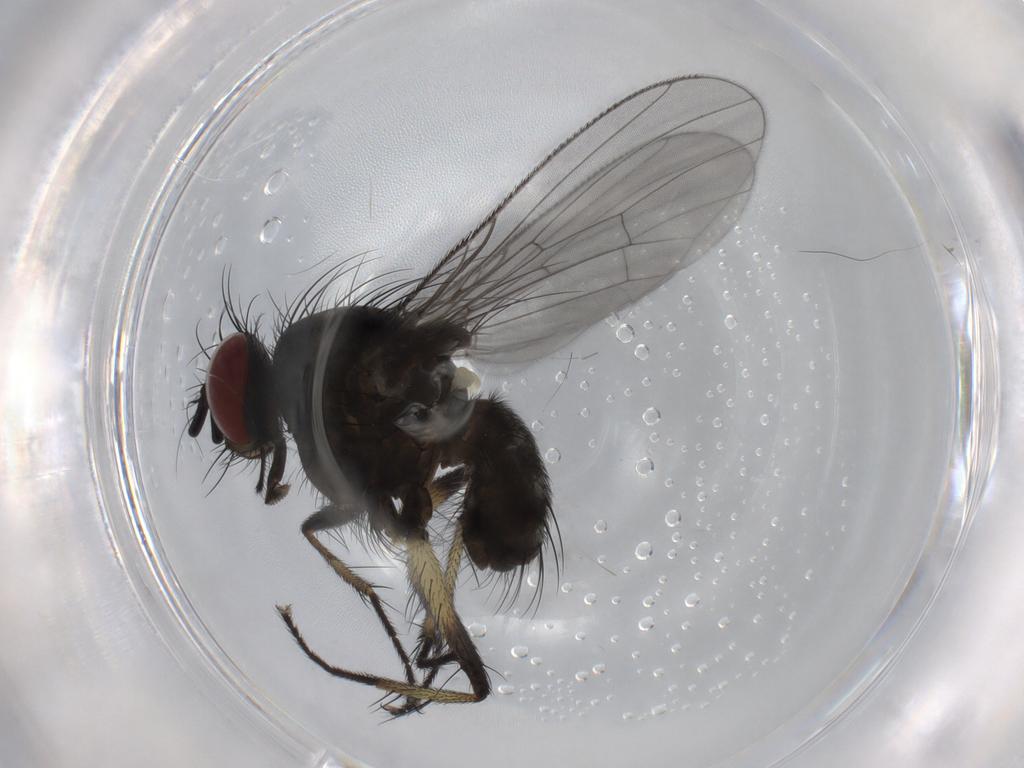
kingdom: Animalia
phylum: Arthropoda
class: Insecta
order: Diptera
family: Muscidae
